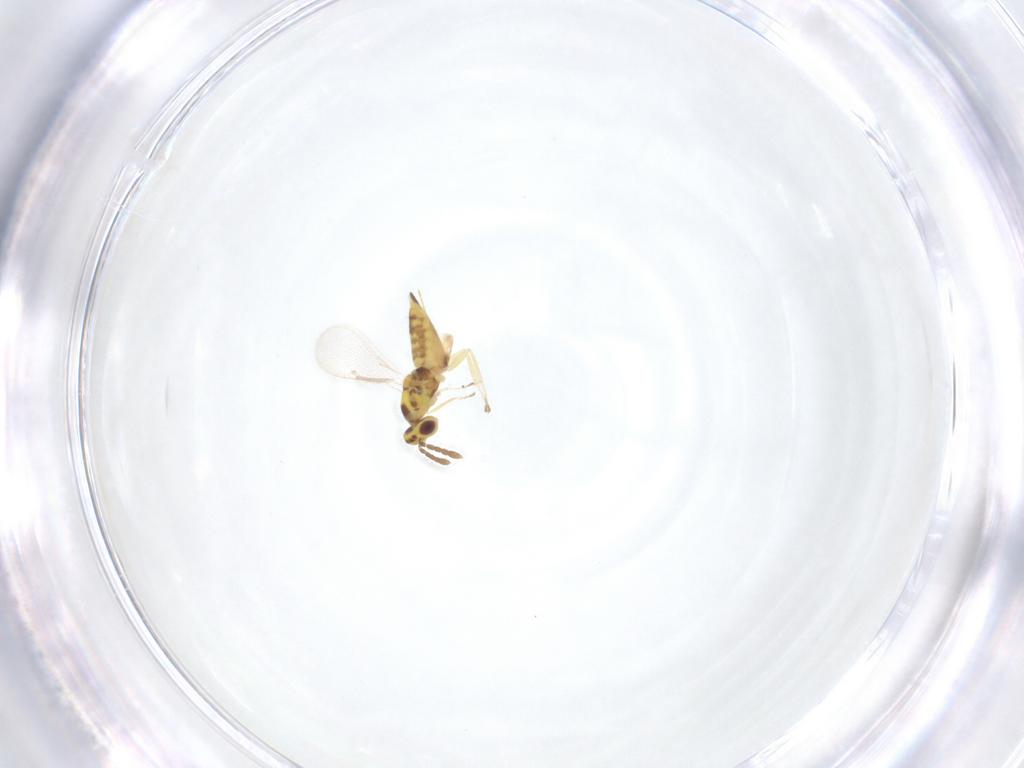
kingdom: Animalia
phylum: Arthropoda
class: Insecta
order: Hymenoptera
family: Eulophidae
